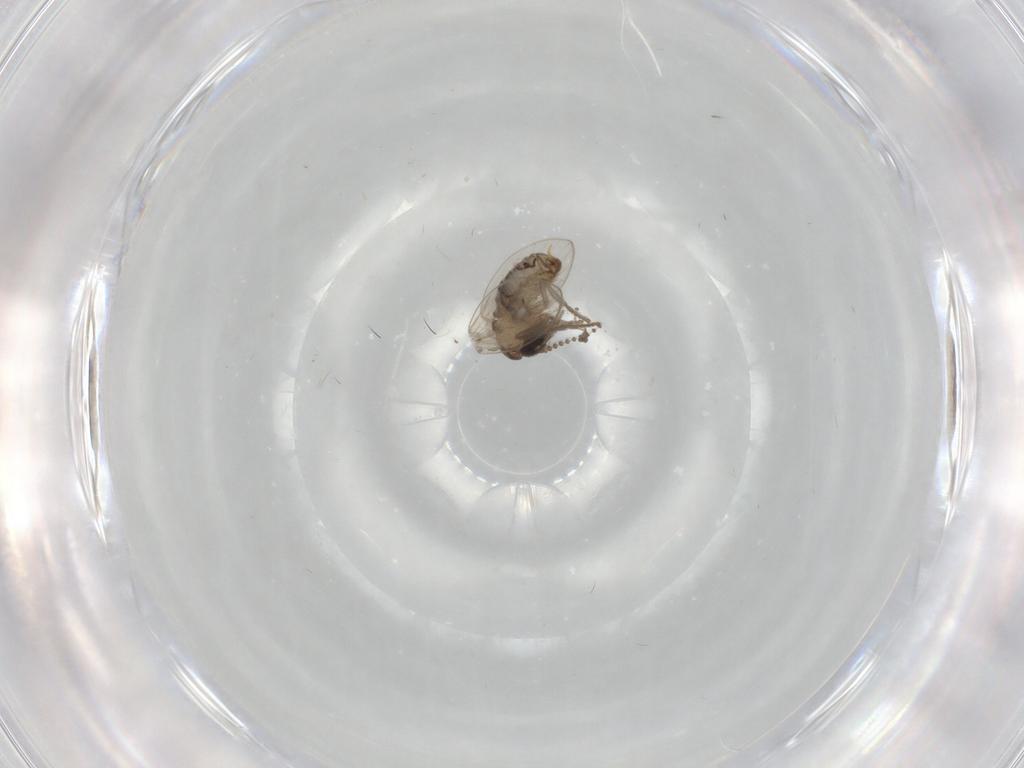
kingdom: Animalia
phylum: Arthropoda
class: Insecta
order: Diptera
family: Psychodidae
